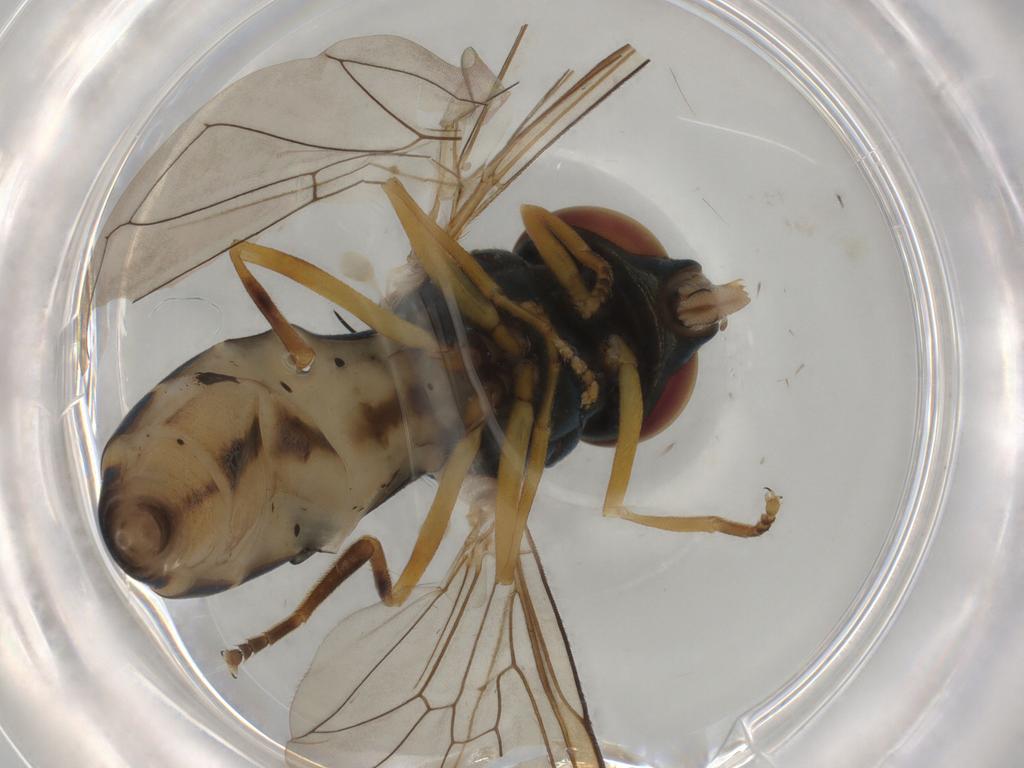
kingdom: Animalia
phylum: Arthropoda
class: Insecta
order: Diptera
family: Syrphidae
